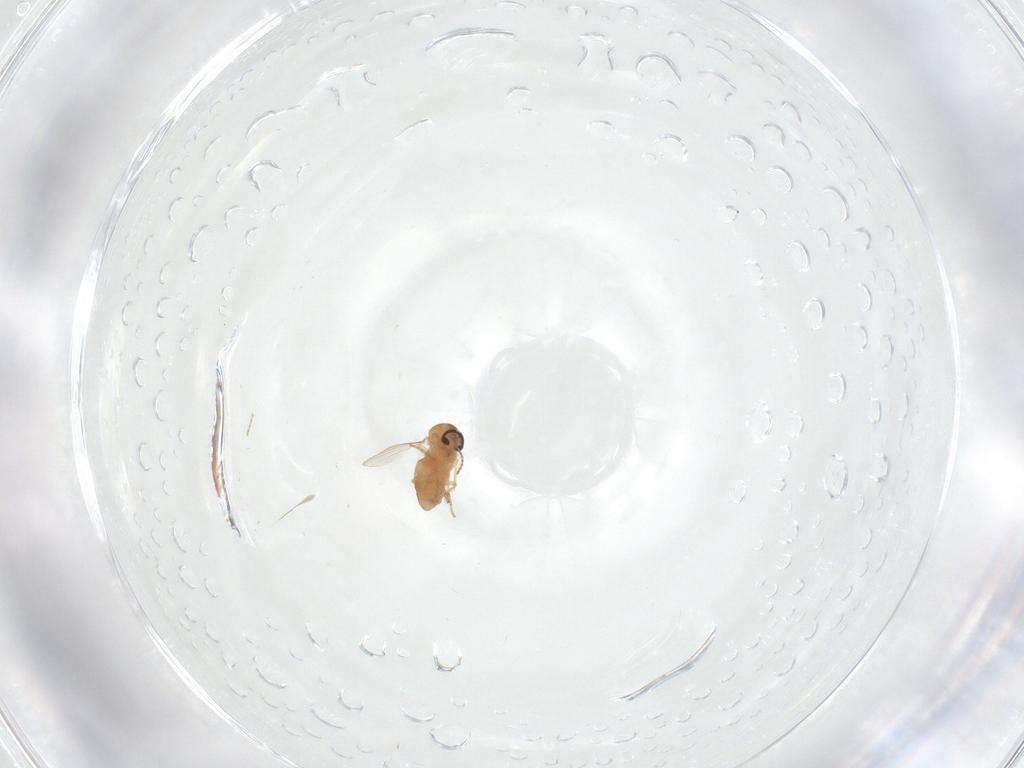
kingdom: Animalia
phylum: Arthropoda
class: Insecta
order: Diptera
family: Ceratopogonidae
